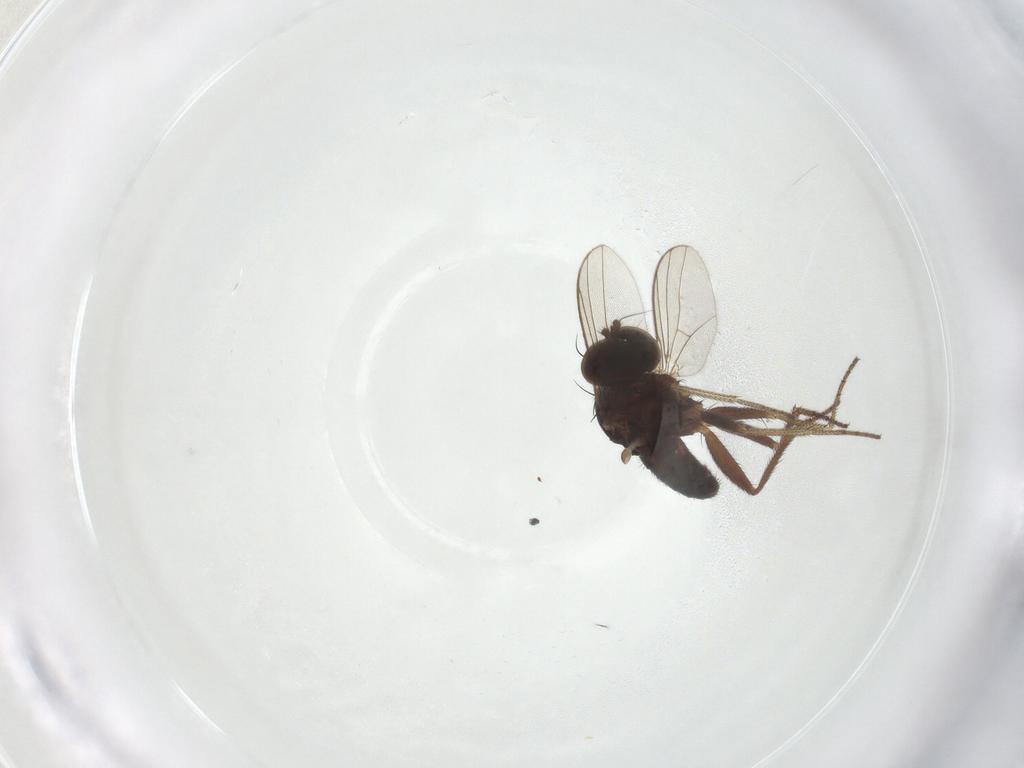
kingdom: Animalia
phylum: Arthropoda
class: Insecta
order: Diptera
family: Dolichopodidae
